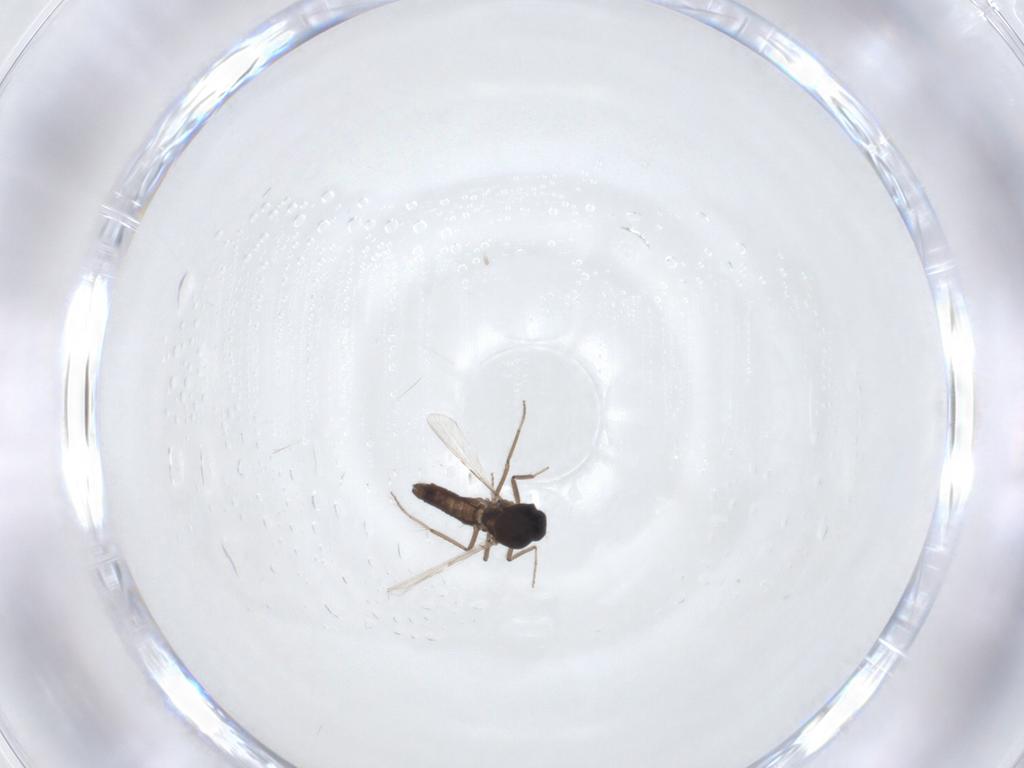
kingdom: Animalia
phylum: Arthropoda
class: Insecta
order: Diptera
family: Ceratopogonidae
